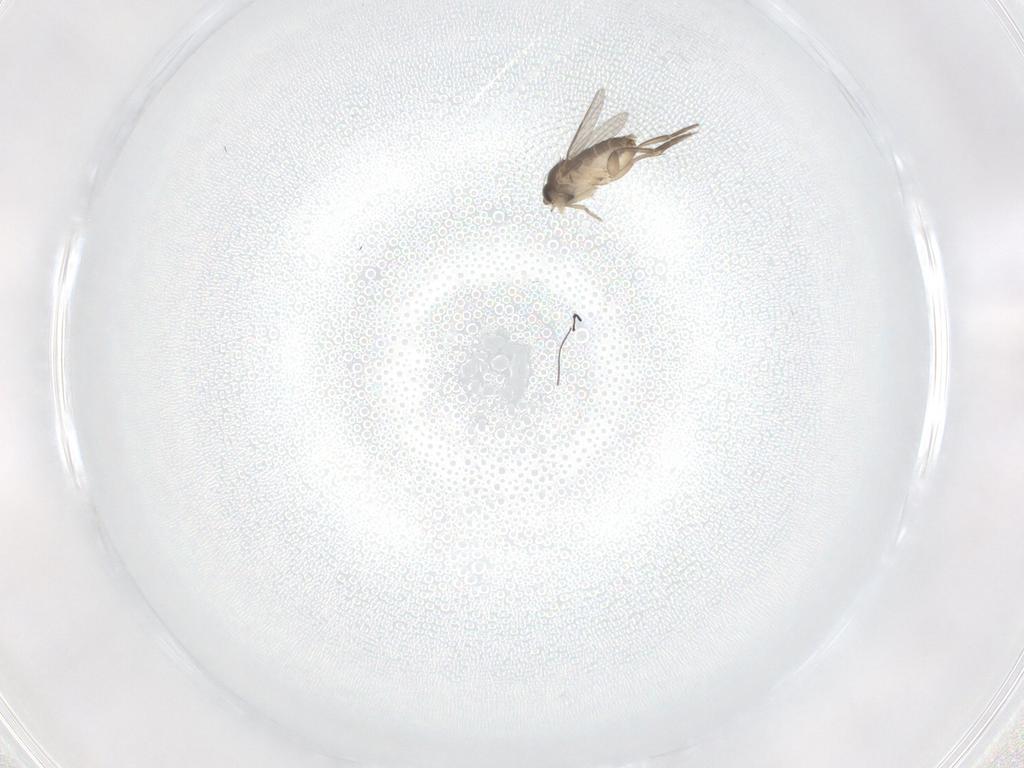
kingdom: Animalia
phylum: Arthropoda
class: Insecta
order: Diptera
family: Phoridae
